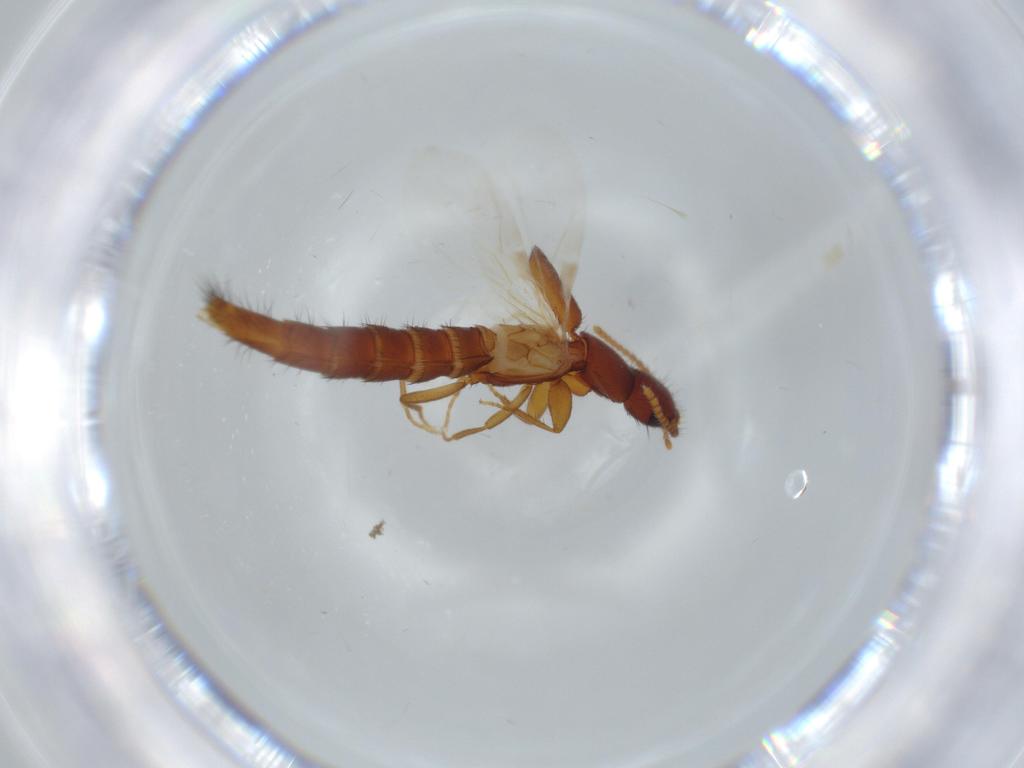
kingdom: Animalia
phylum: Arthropoda
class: Insecta
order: Coleoptera
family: Staphylinidae
